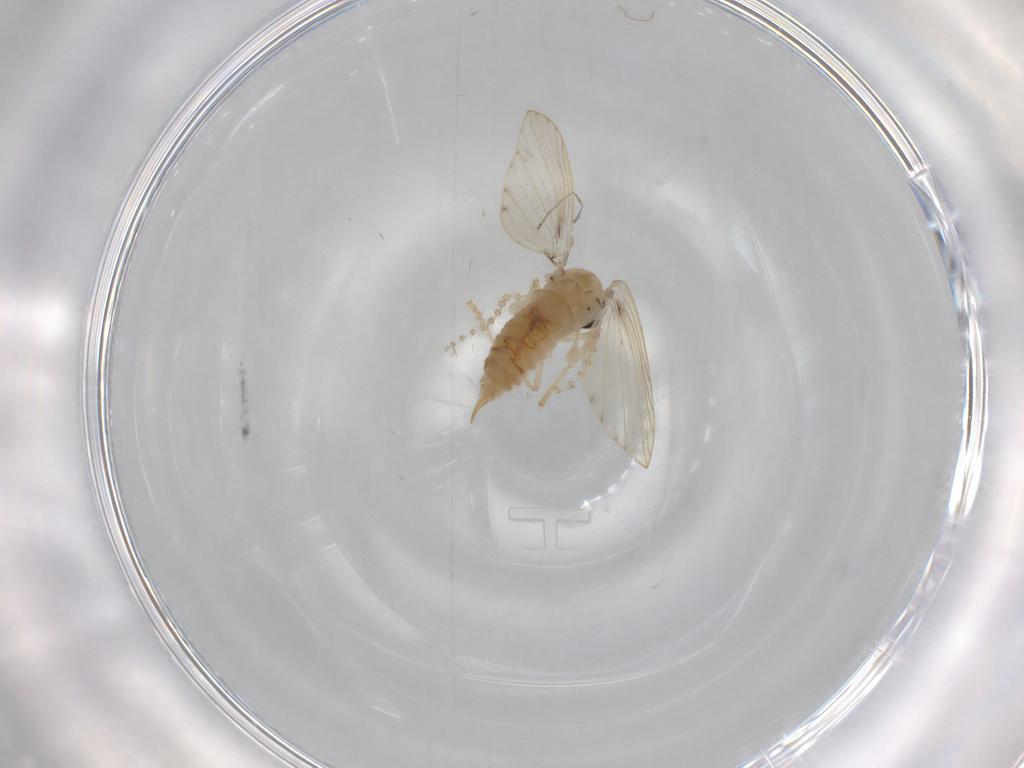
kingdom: Animalia
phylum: Arthropoda
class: Insecta
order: Diptera
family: Psychodidae
